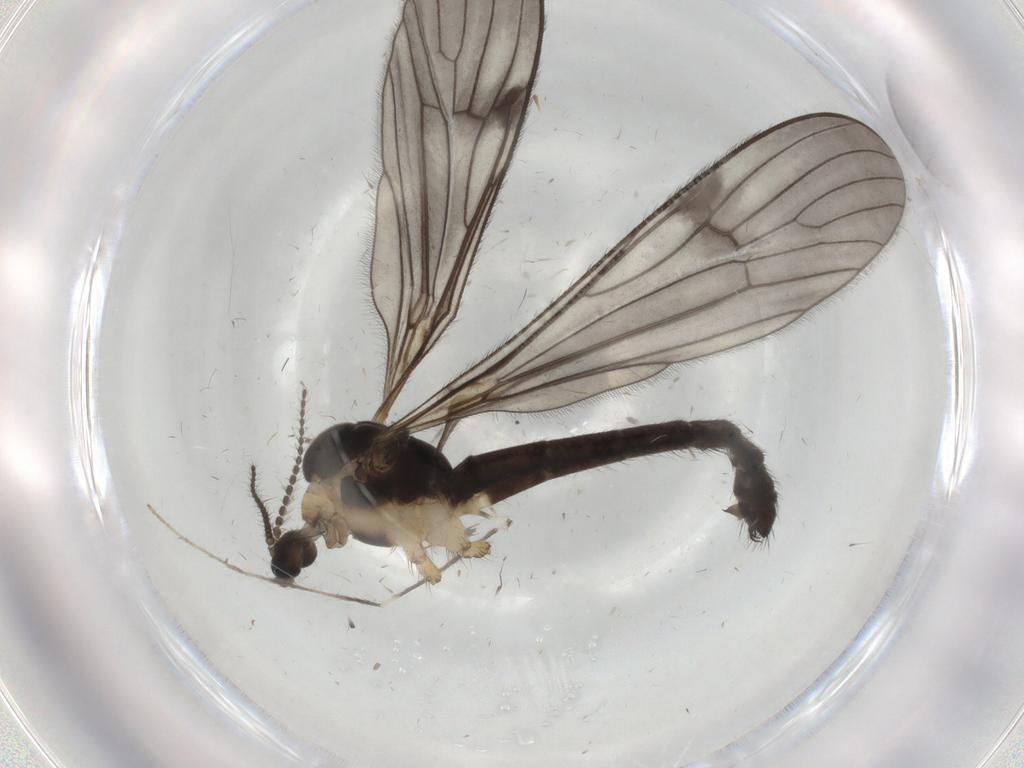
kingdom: Animalia
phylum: Arthropoda
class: Insecta
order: Diptera
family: Limoniidae
